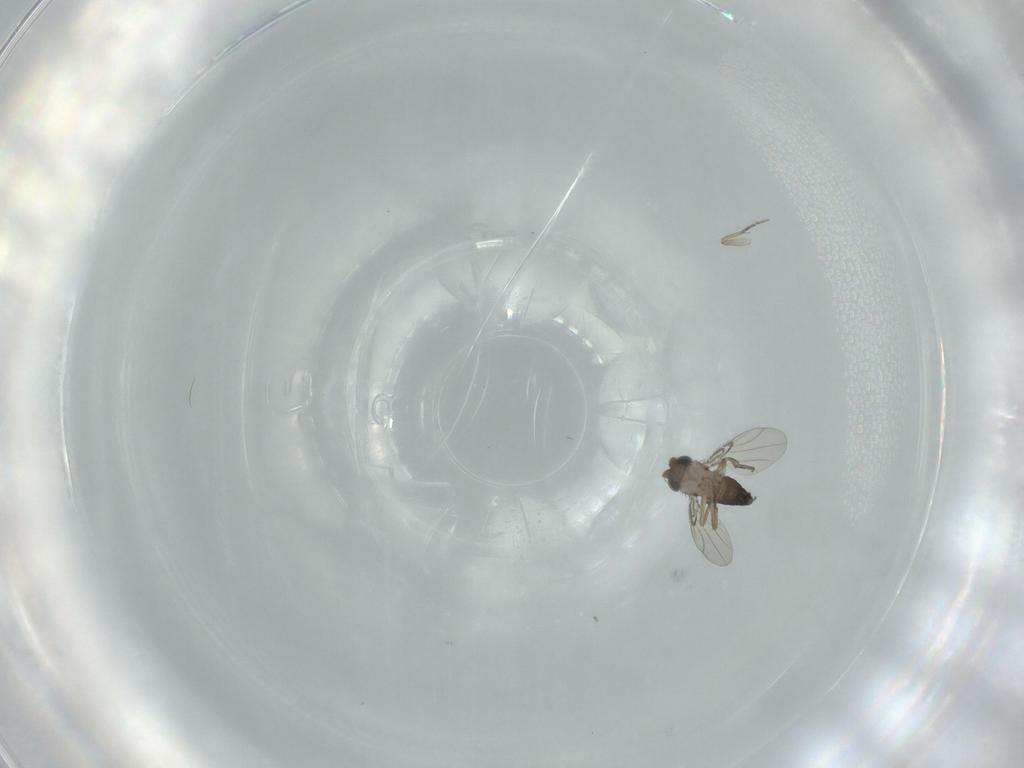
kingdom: Animalia
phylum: Arthropoda
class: Insecta
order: Diptera
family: Phoridae
